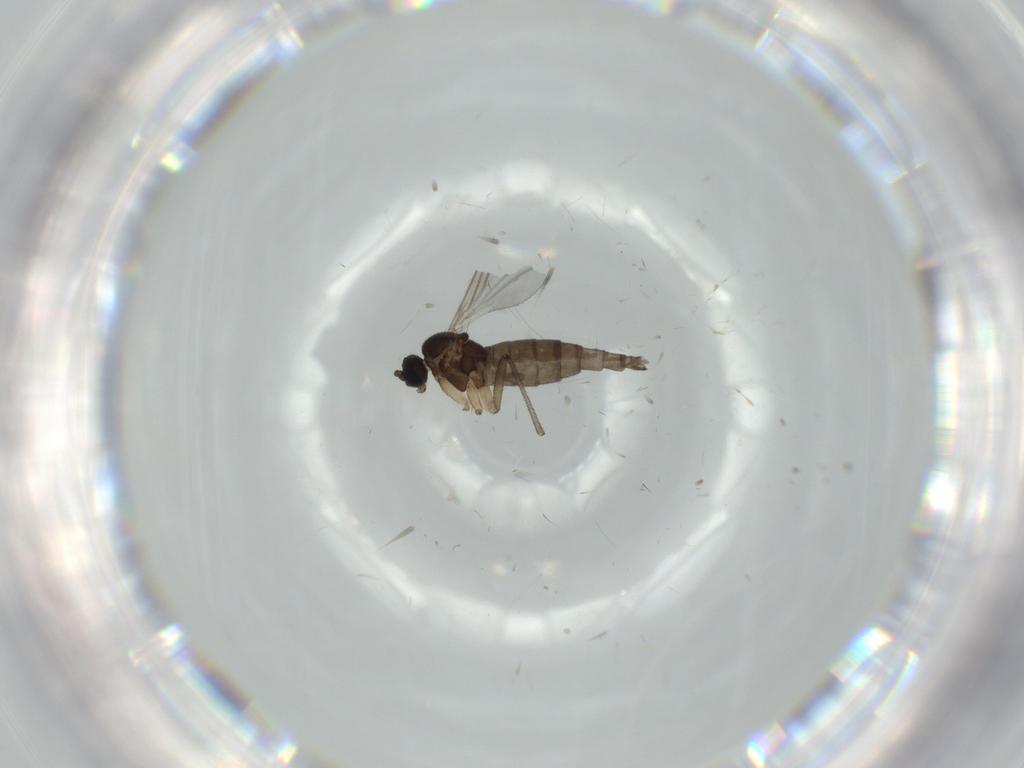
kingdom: Animalia
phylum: Arthropoda
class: Insecta
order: Diptera
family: Sciaridae
